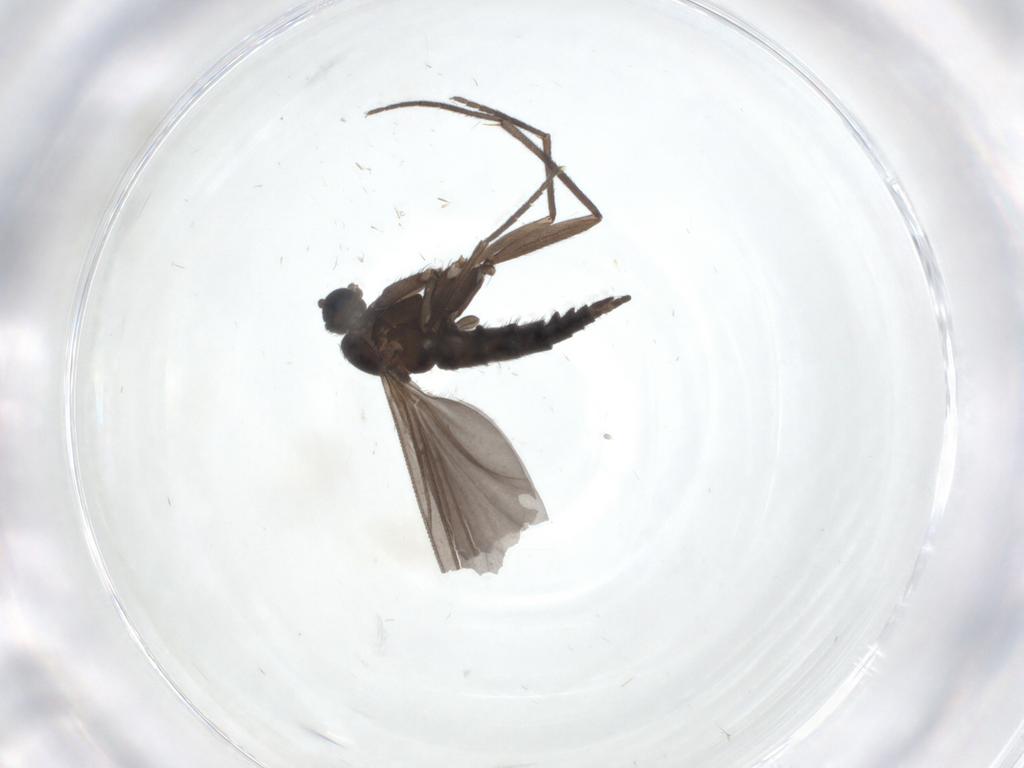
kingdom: Animalia
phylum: Arthropoda
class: Insecta
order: Diptera
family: Sciaridae
